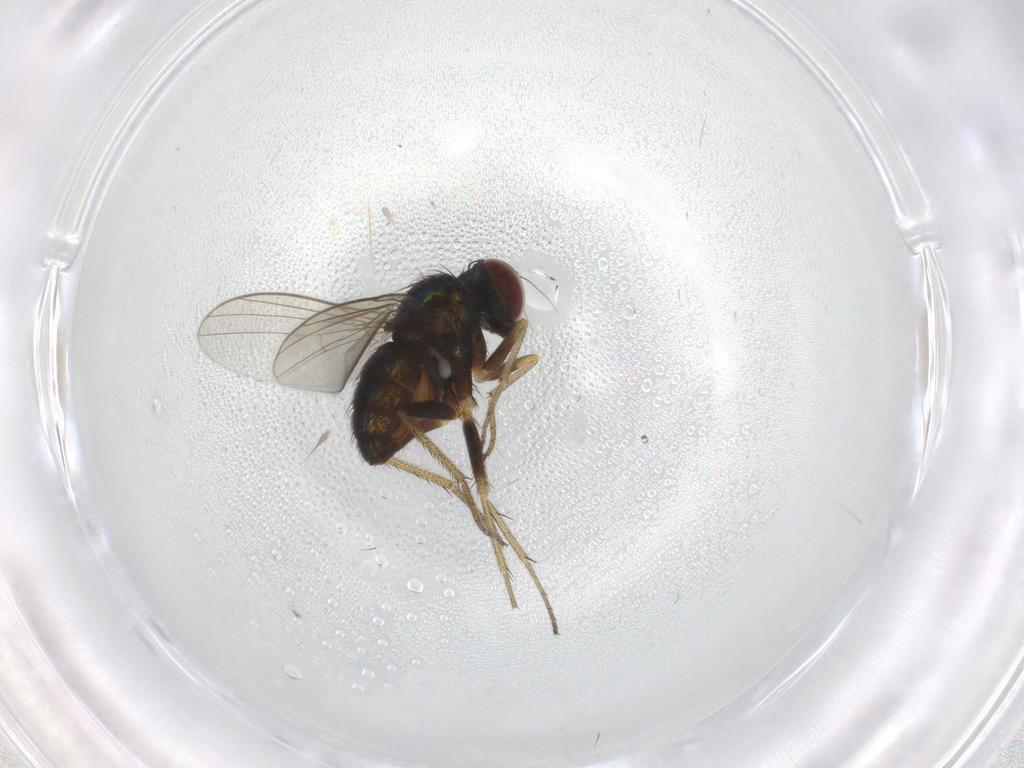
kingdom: Animalia
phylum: Arthropoda
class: Insecta
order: Diptera
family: Dolichopodidae
